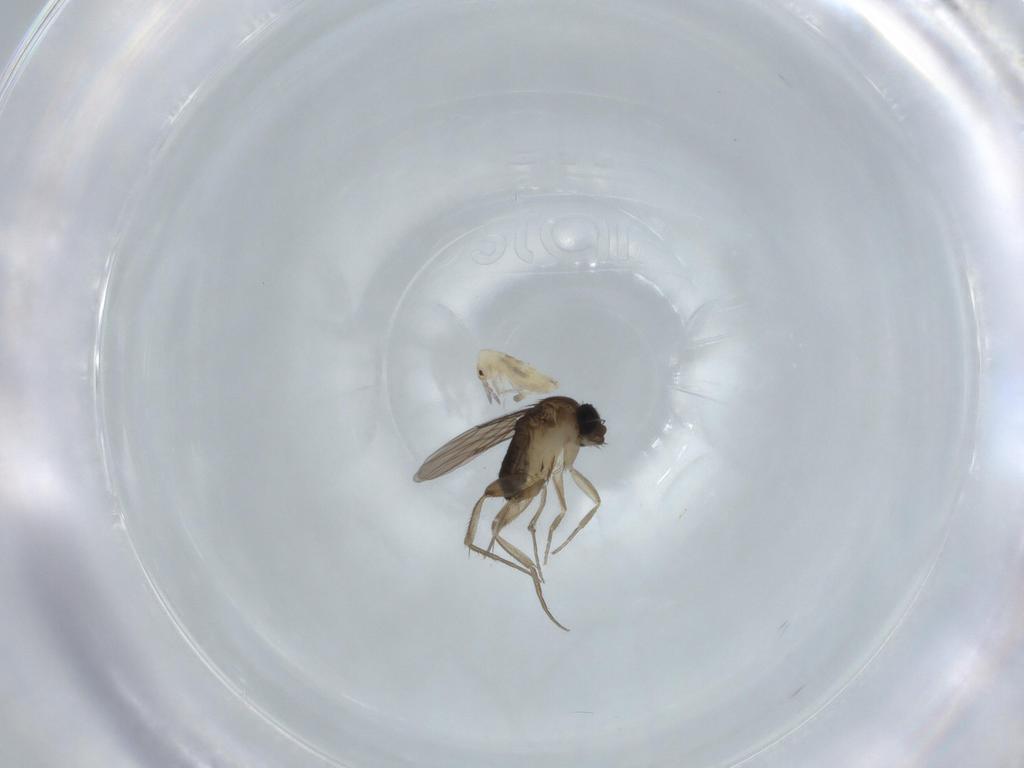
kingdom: Animalia
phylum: Arthropoda
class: Insecta
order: Diptera
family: Phoridae
